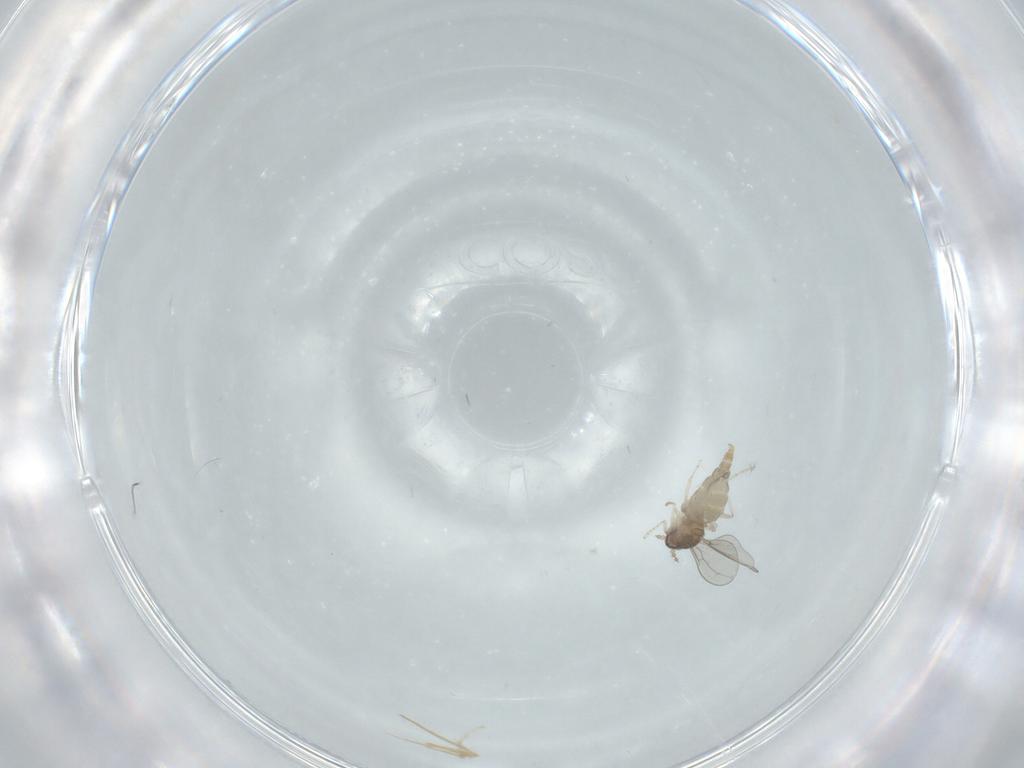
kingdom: Animalia
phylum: Arthropoda
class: Insecta
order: Diptera
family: Cecidomyiidae
